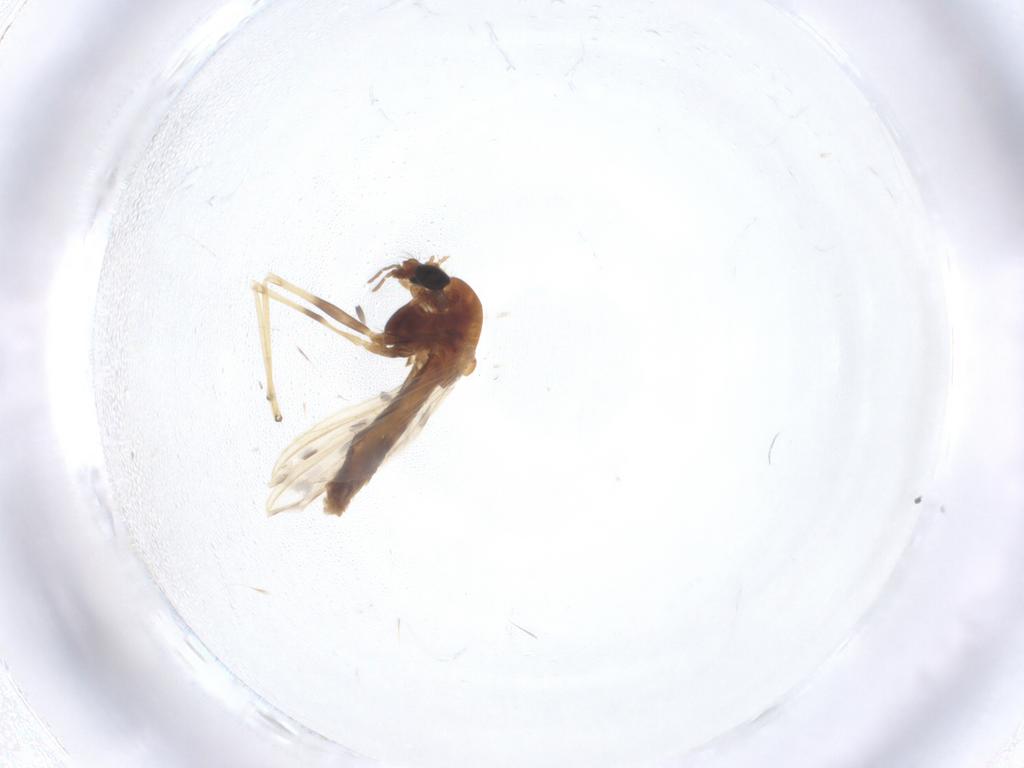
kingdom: Animalia
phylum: Arthropoda
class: Insecta
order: Diptera
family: Chironomidae
